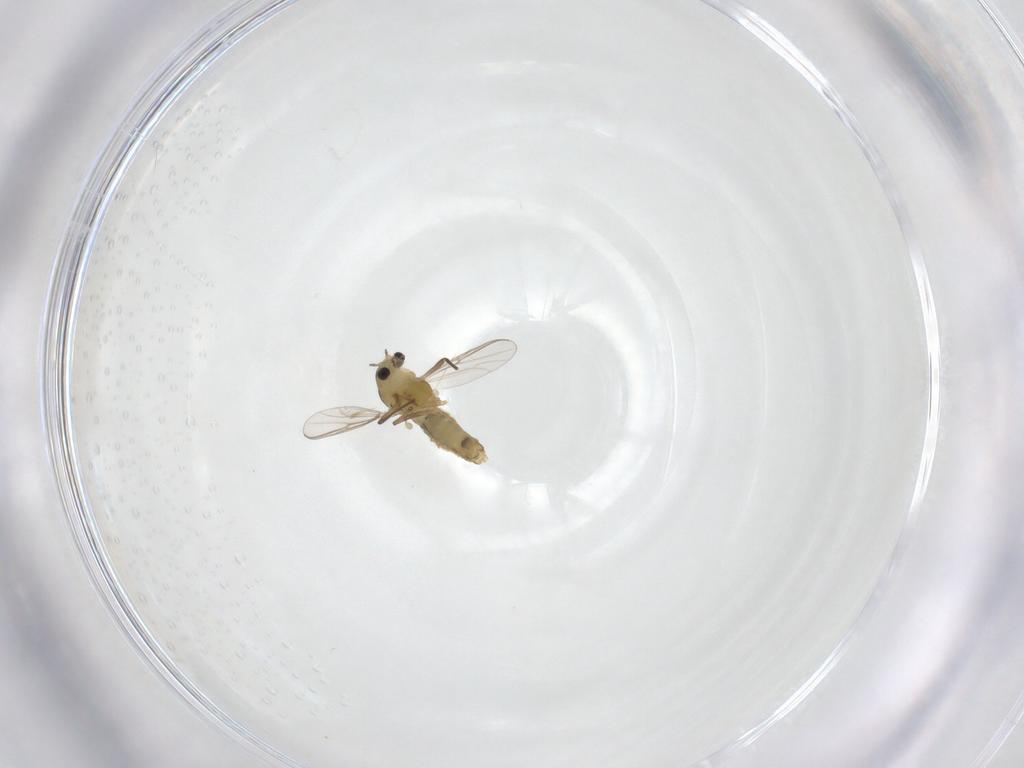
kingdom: Animalia
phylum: Arthropoda
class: Insecta
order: Diptera
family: Chironomidae
